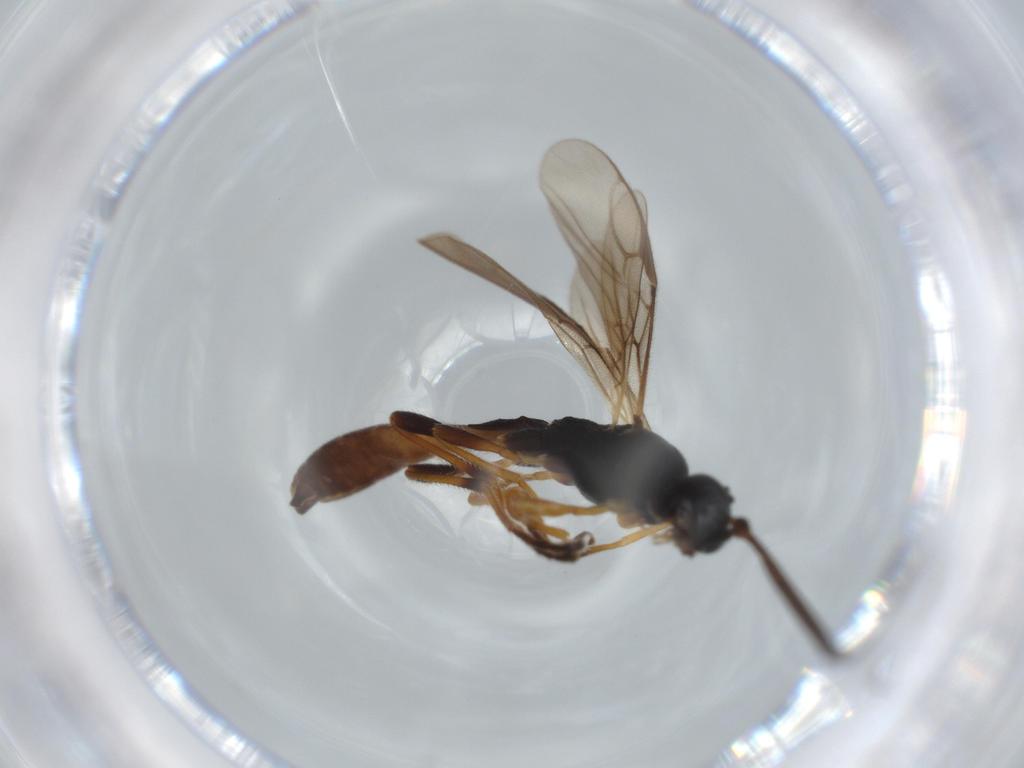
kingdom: Animalia
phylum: Arthropoda
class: Insecta
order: Hymenoptera
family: Braconidae
